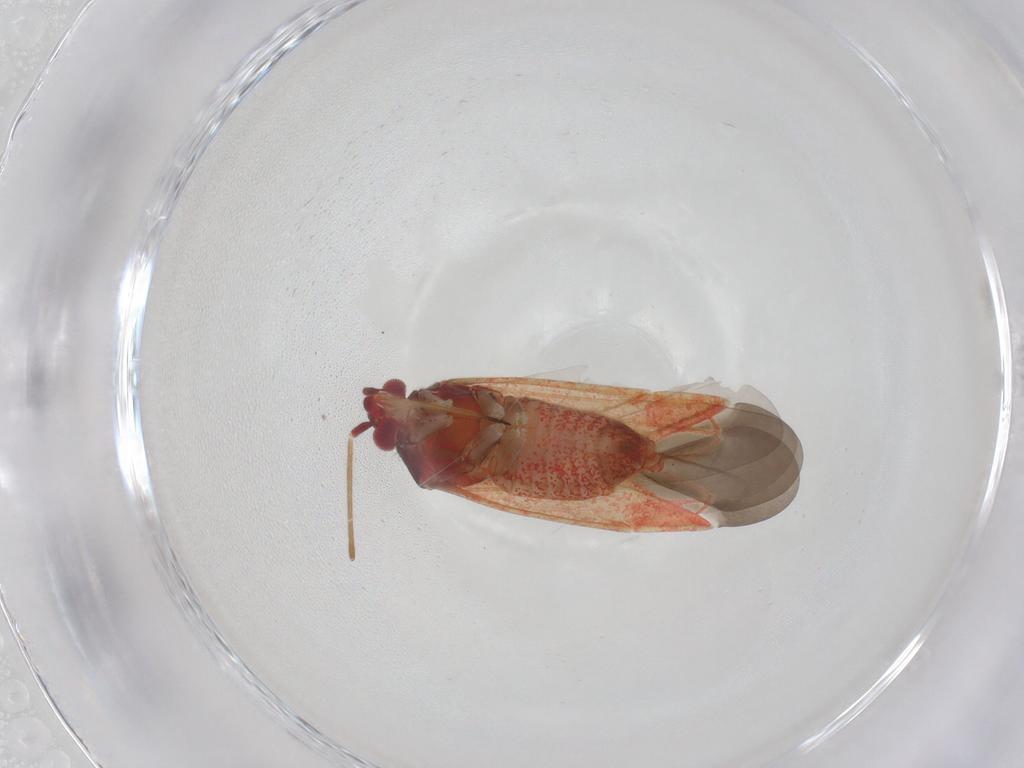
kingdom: Animalia
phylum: Arthropoda
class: Insecta
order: Hemiptera
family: Miridae
